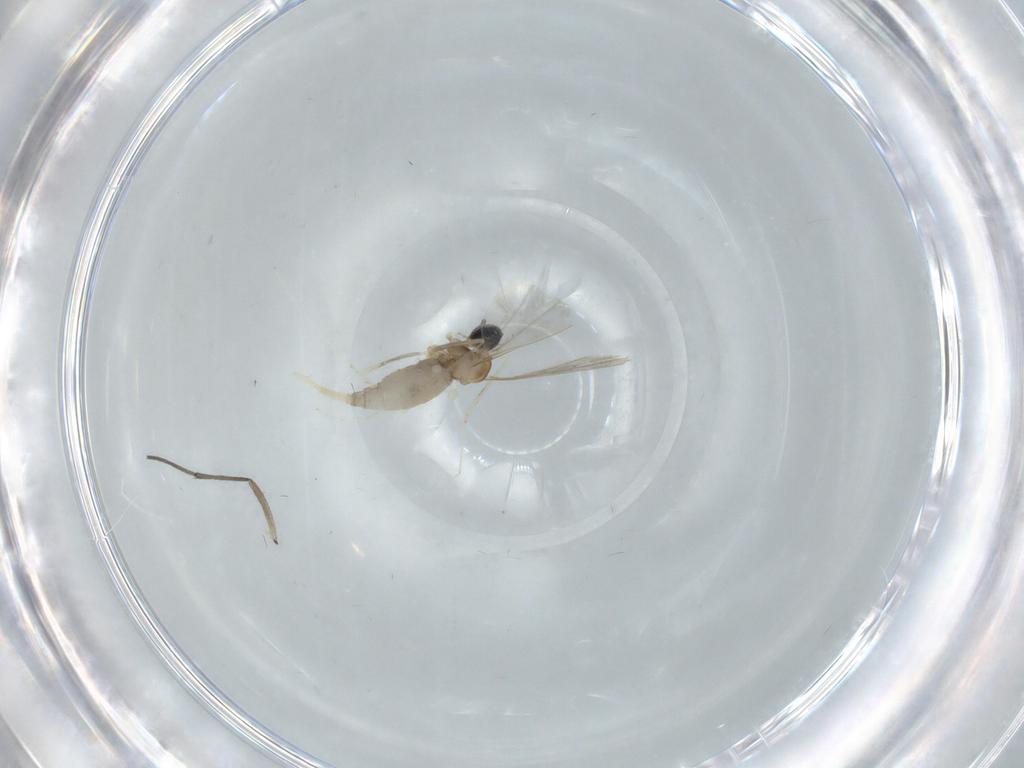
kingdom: Animalia
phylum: Arthropoda
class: Insecta
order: Diptera
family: Cecidomyiidae
